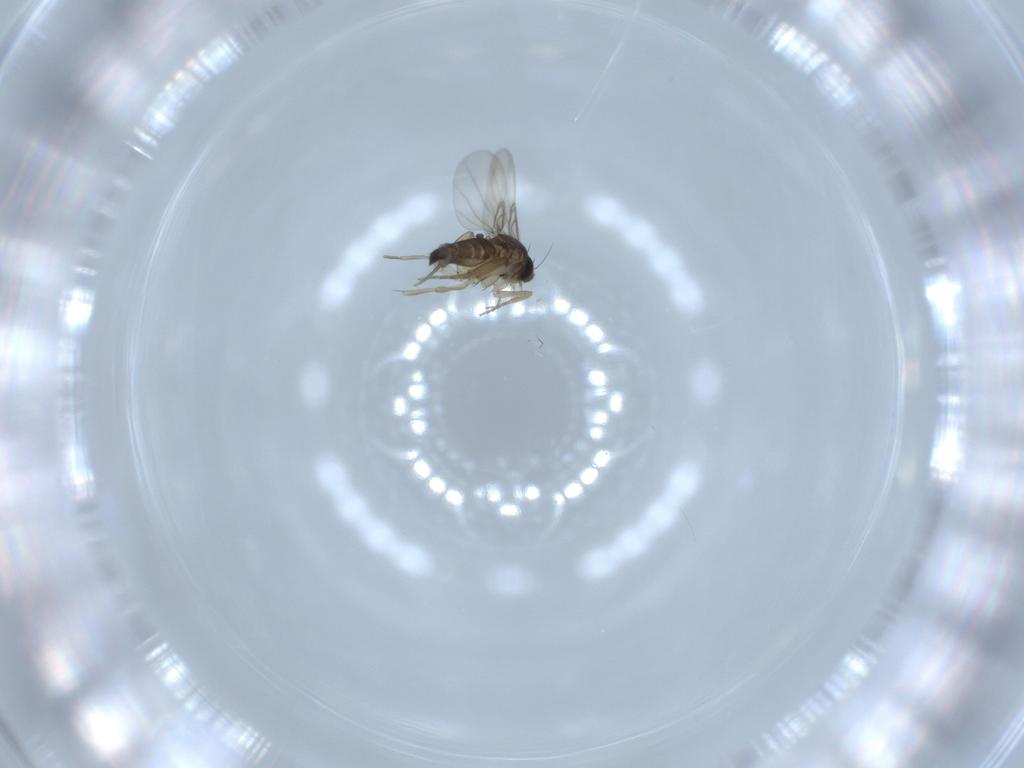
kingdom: Animalia
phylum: Arthropoda
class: Insecta
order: Diptera
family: Phoridae
